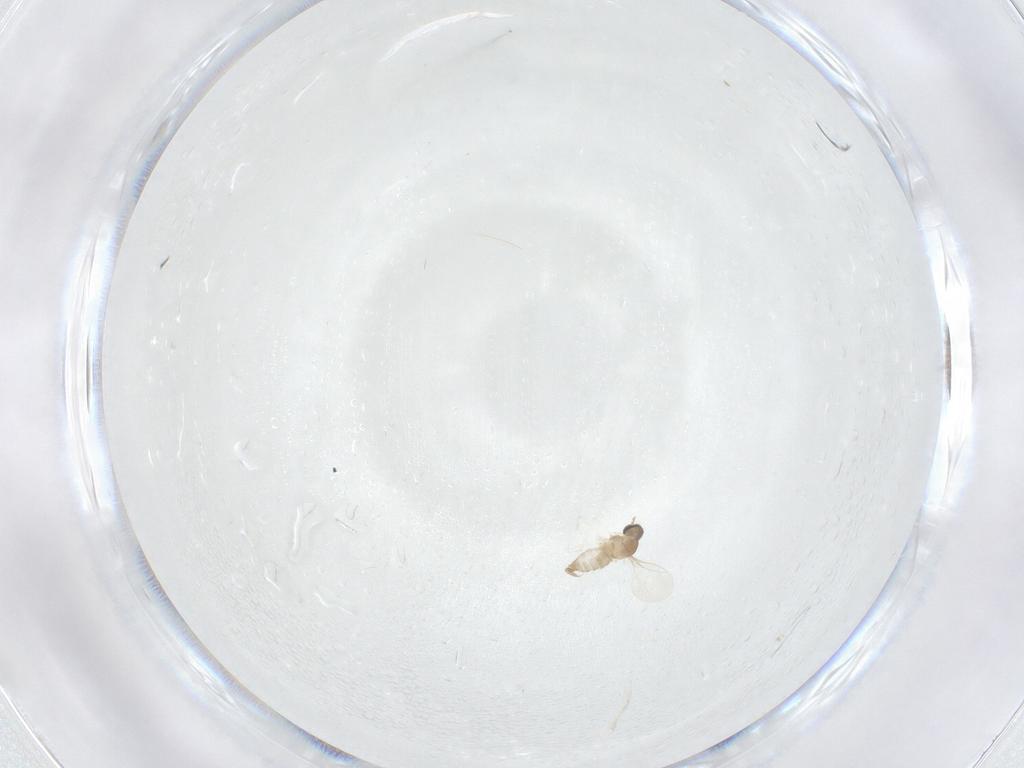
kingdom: Animalia
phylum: Arthropoda
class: Insecta
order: Diptera
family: Cecidomyiidae
